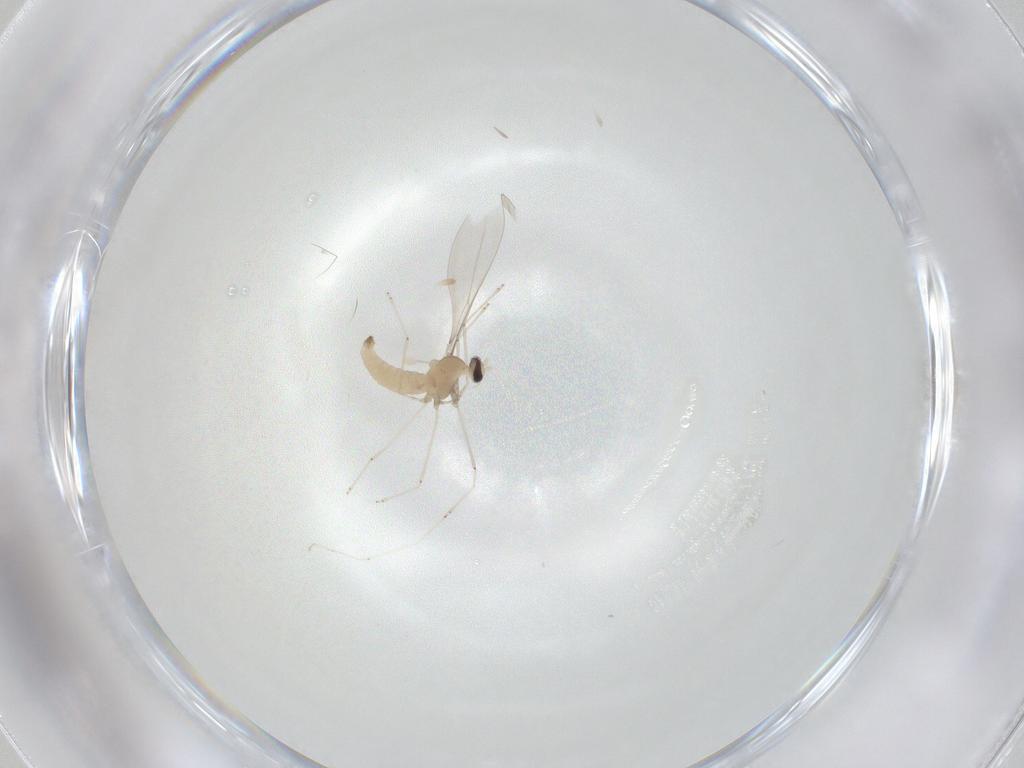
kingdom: Animalia
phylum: Arthropoda
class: Insecta
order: Diptera
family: Cecidomyiidae
